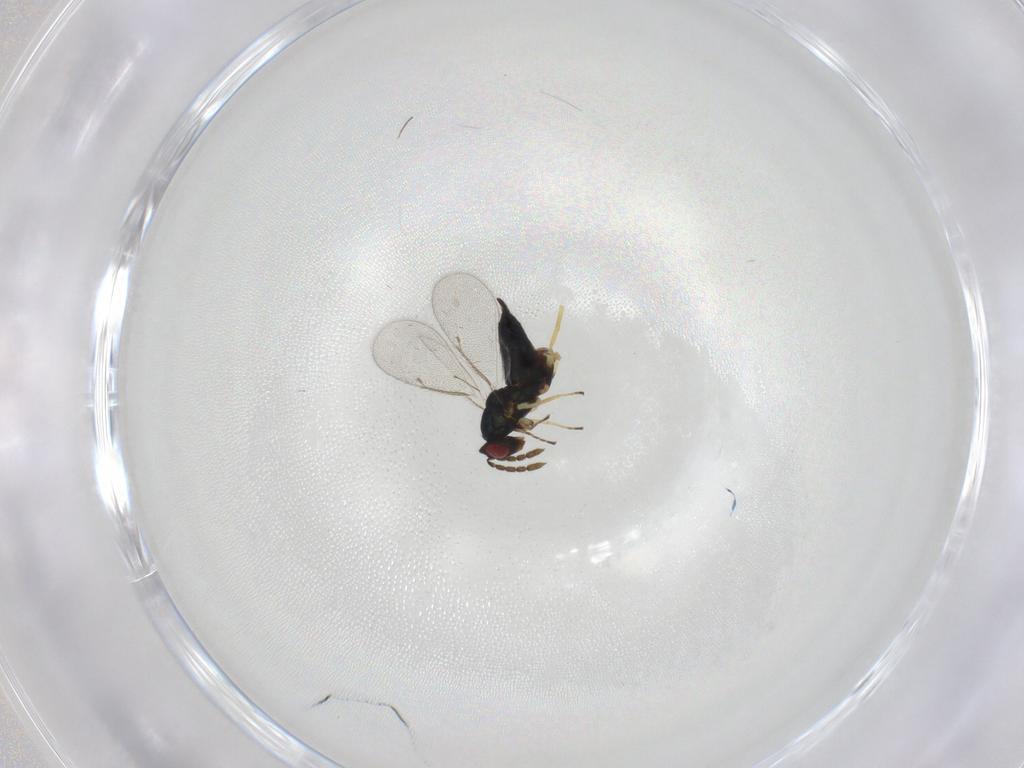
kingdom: Animalia
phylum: Arthropoda
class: Insecta
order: Hymenoptera
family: Eulophidae
